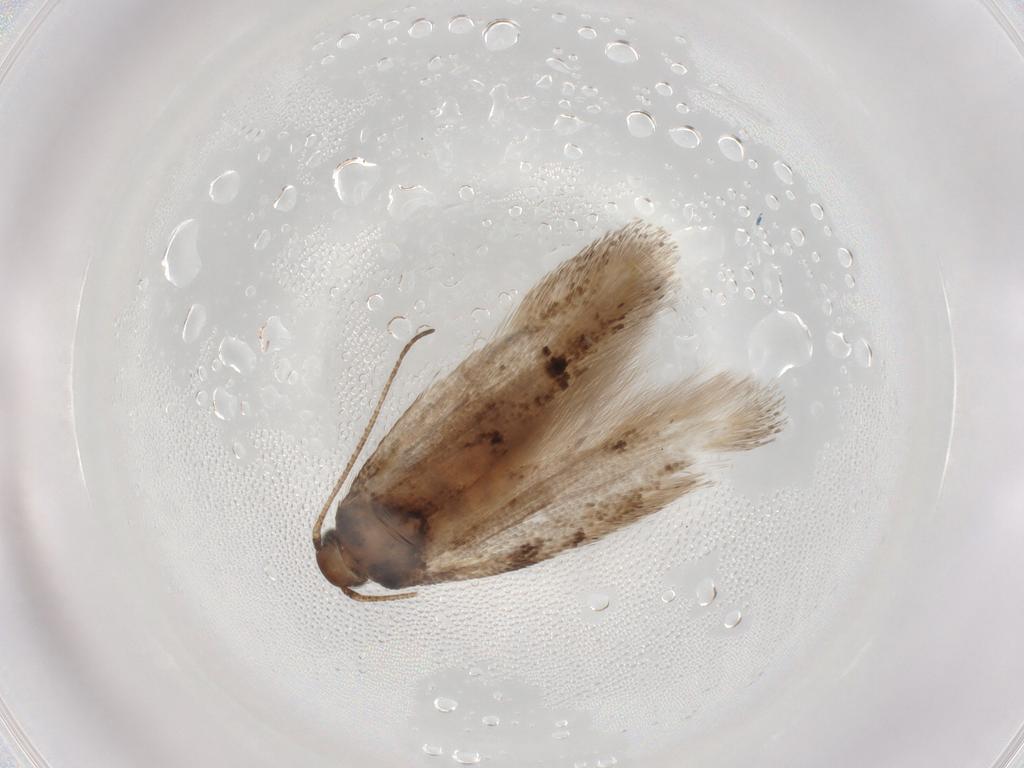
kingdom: Animalia
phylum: Arthropoda
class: Insecta
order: Lepidoptera
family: Gelechiidae
